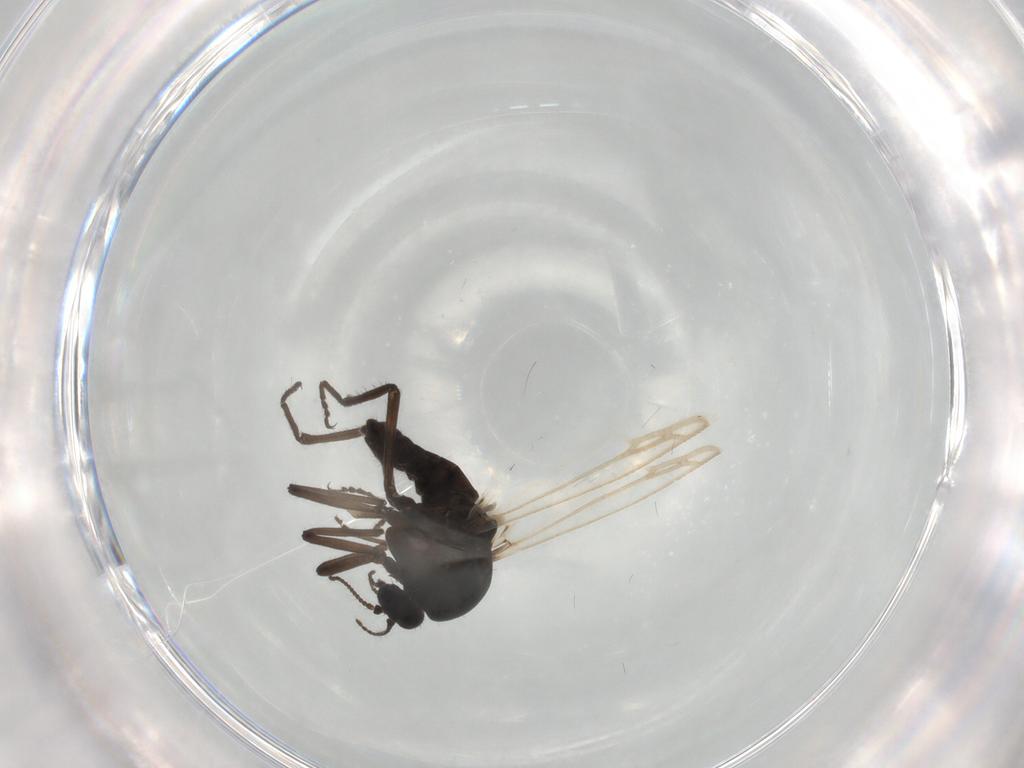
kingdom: Animalia
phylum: Arthropoda
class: Insecta
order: Diptera
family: Ceratopogonidae
